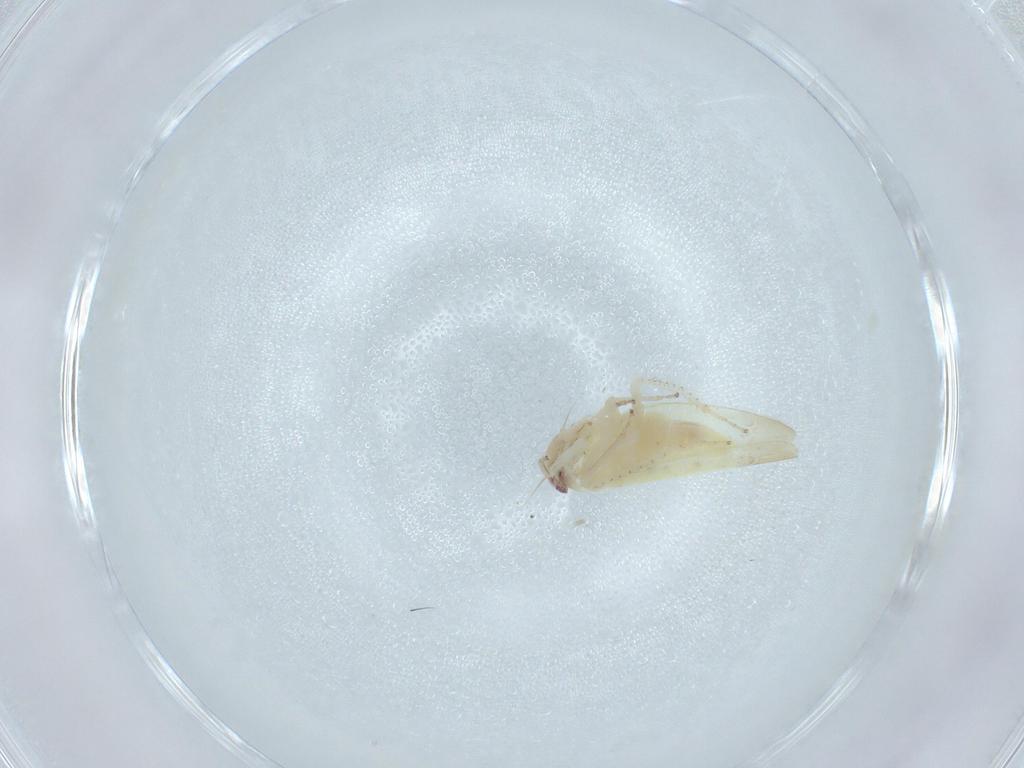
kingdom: Animalia
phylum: Arthropoda
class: Insecta
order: Hemiptera
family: Cicadellidae
